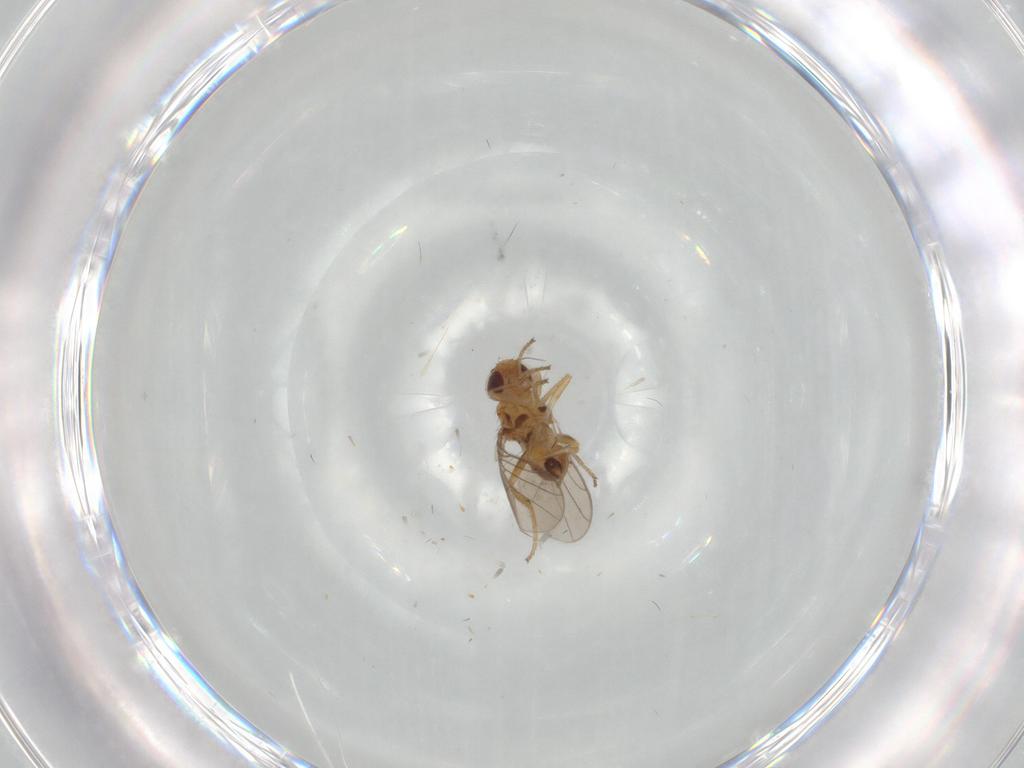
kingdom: Animalia
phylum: Arthropoda
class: Insecta
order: Diptera
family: Chloropidae
